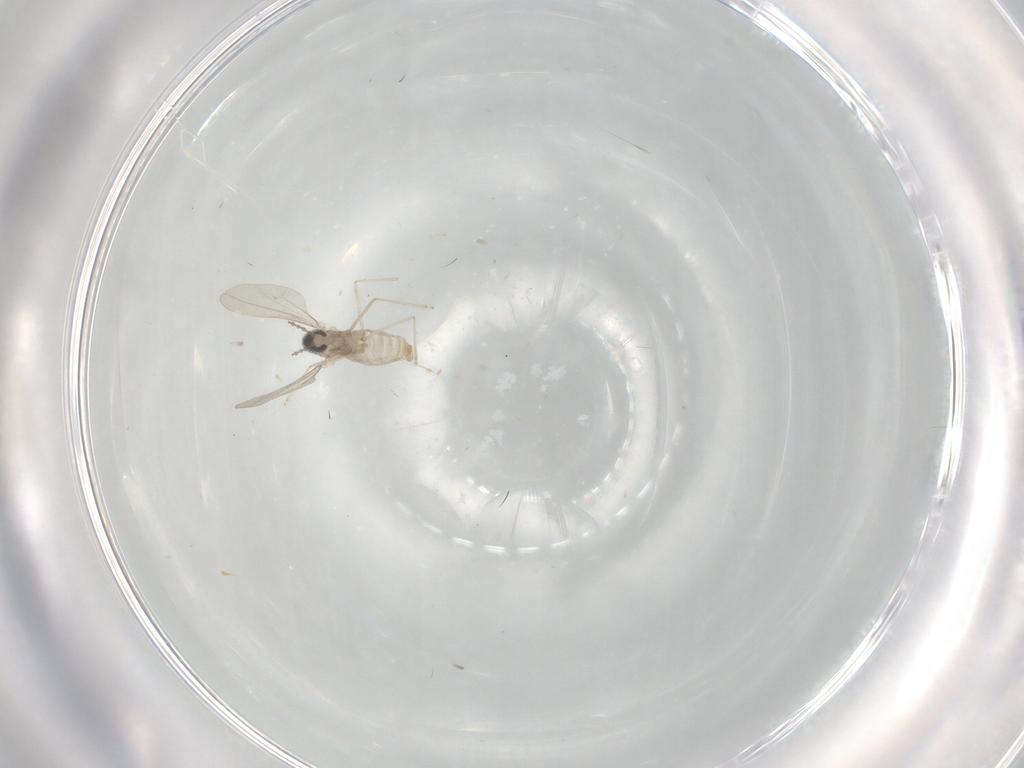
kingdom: Animalia
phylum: Arthropoda
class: Insecta
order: Diptera
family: Cecidomyiidae
